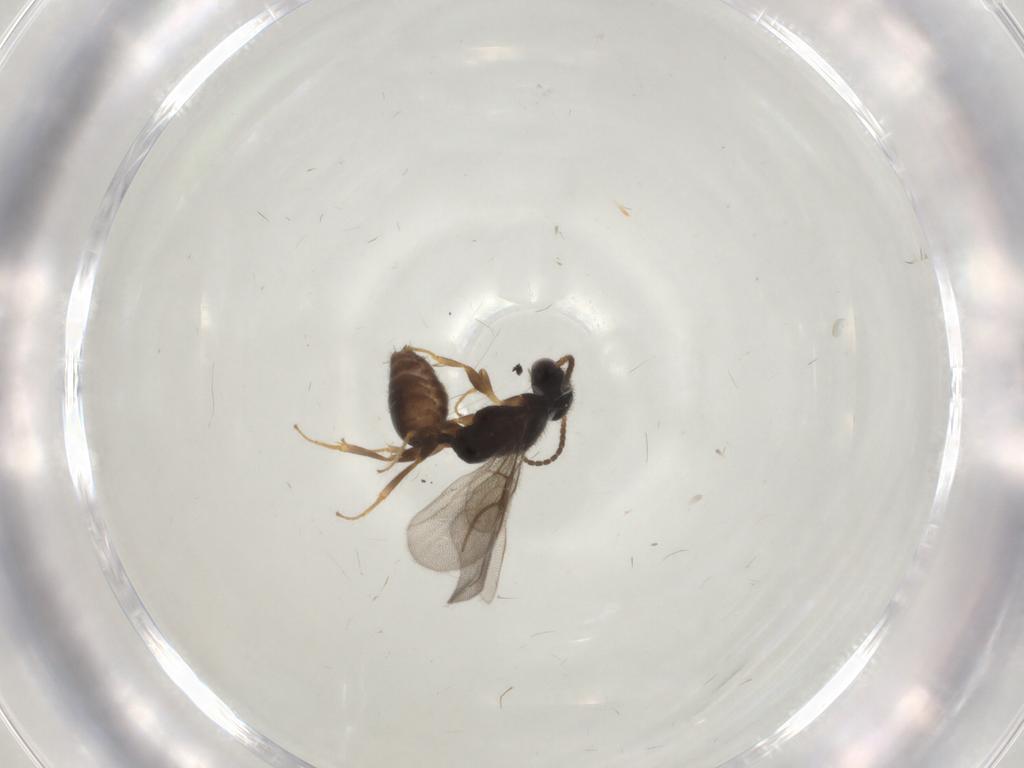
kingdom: Animalia
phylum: Arthropoda
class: Insecta
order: Hymenoptera
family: Bethylidae
